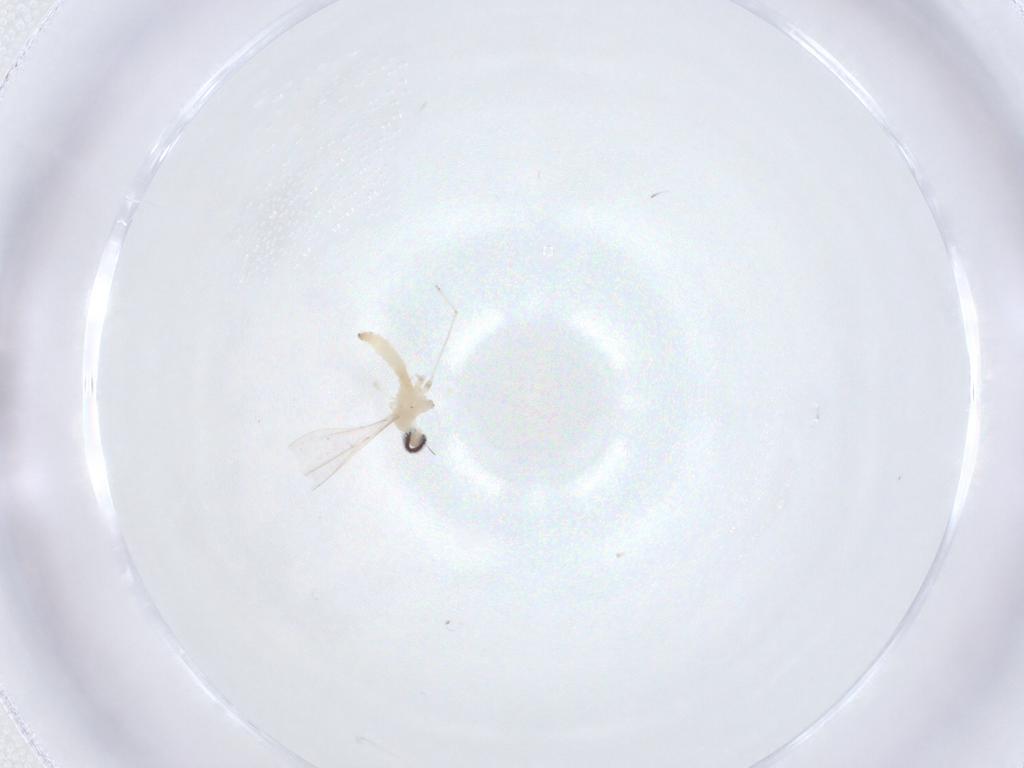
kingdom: Animalia
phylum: Arthropoda
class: Insecta
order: Diptera
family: Cecidomyiidae
